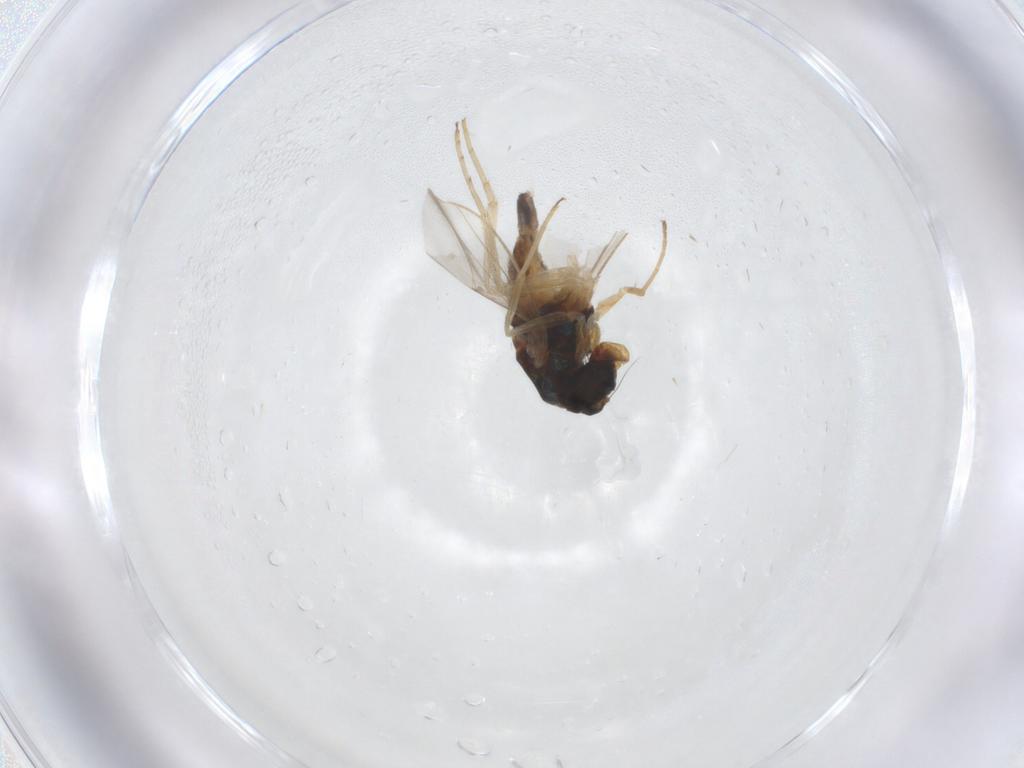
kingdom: Animalia
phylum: Arthropoda
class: Insecta
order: Diptera
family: Dolichopodidae
